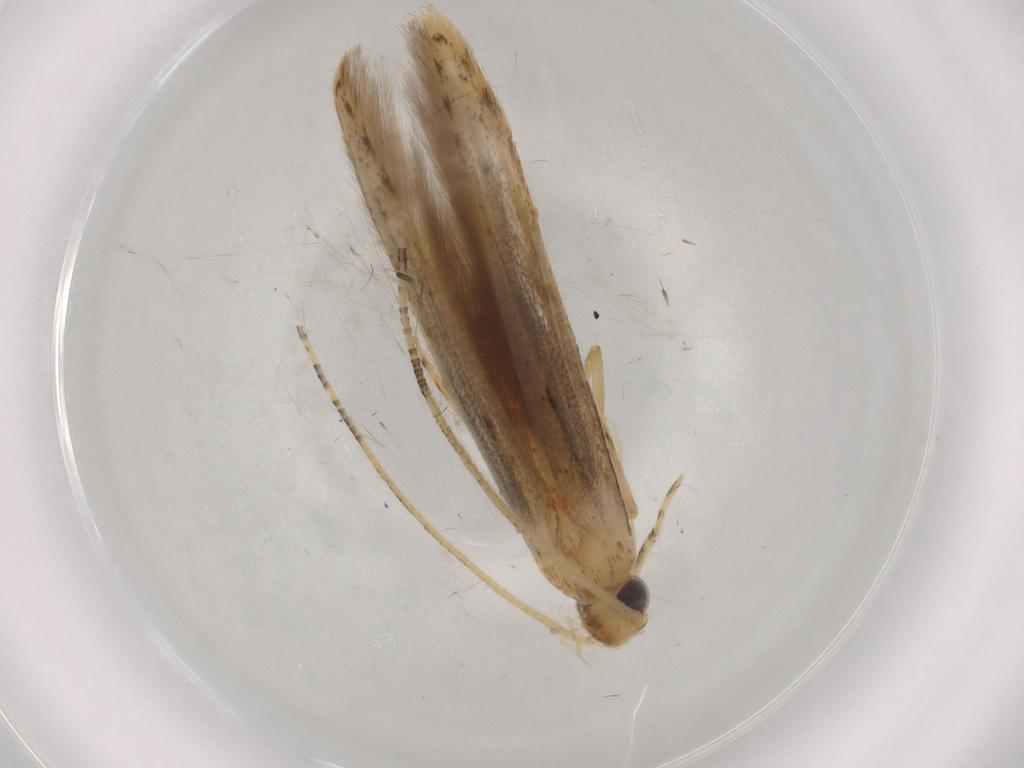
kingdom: Animalia
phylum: Arthropoda
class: Insecta
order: Lepidoptera
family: Batrachedridae
